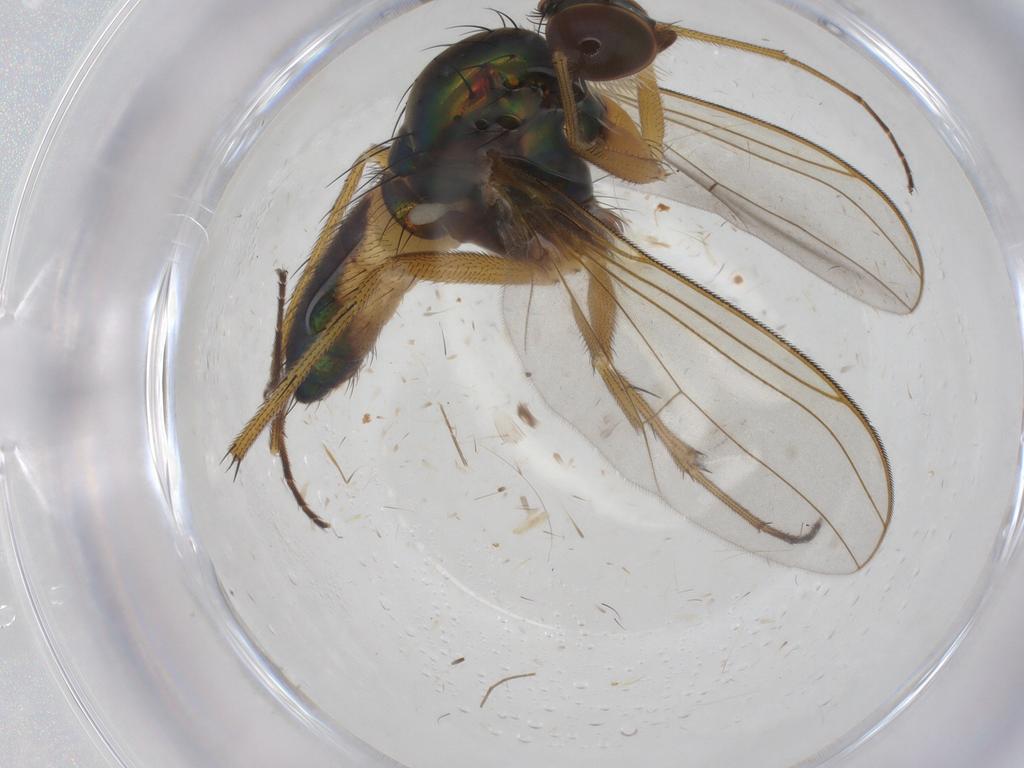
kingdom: Animalia
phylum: Arthropoda
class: Insecta
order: Diptera
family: Dolichopodidae
